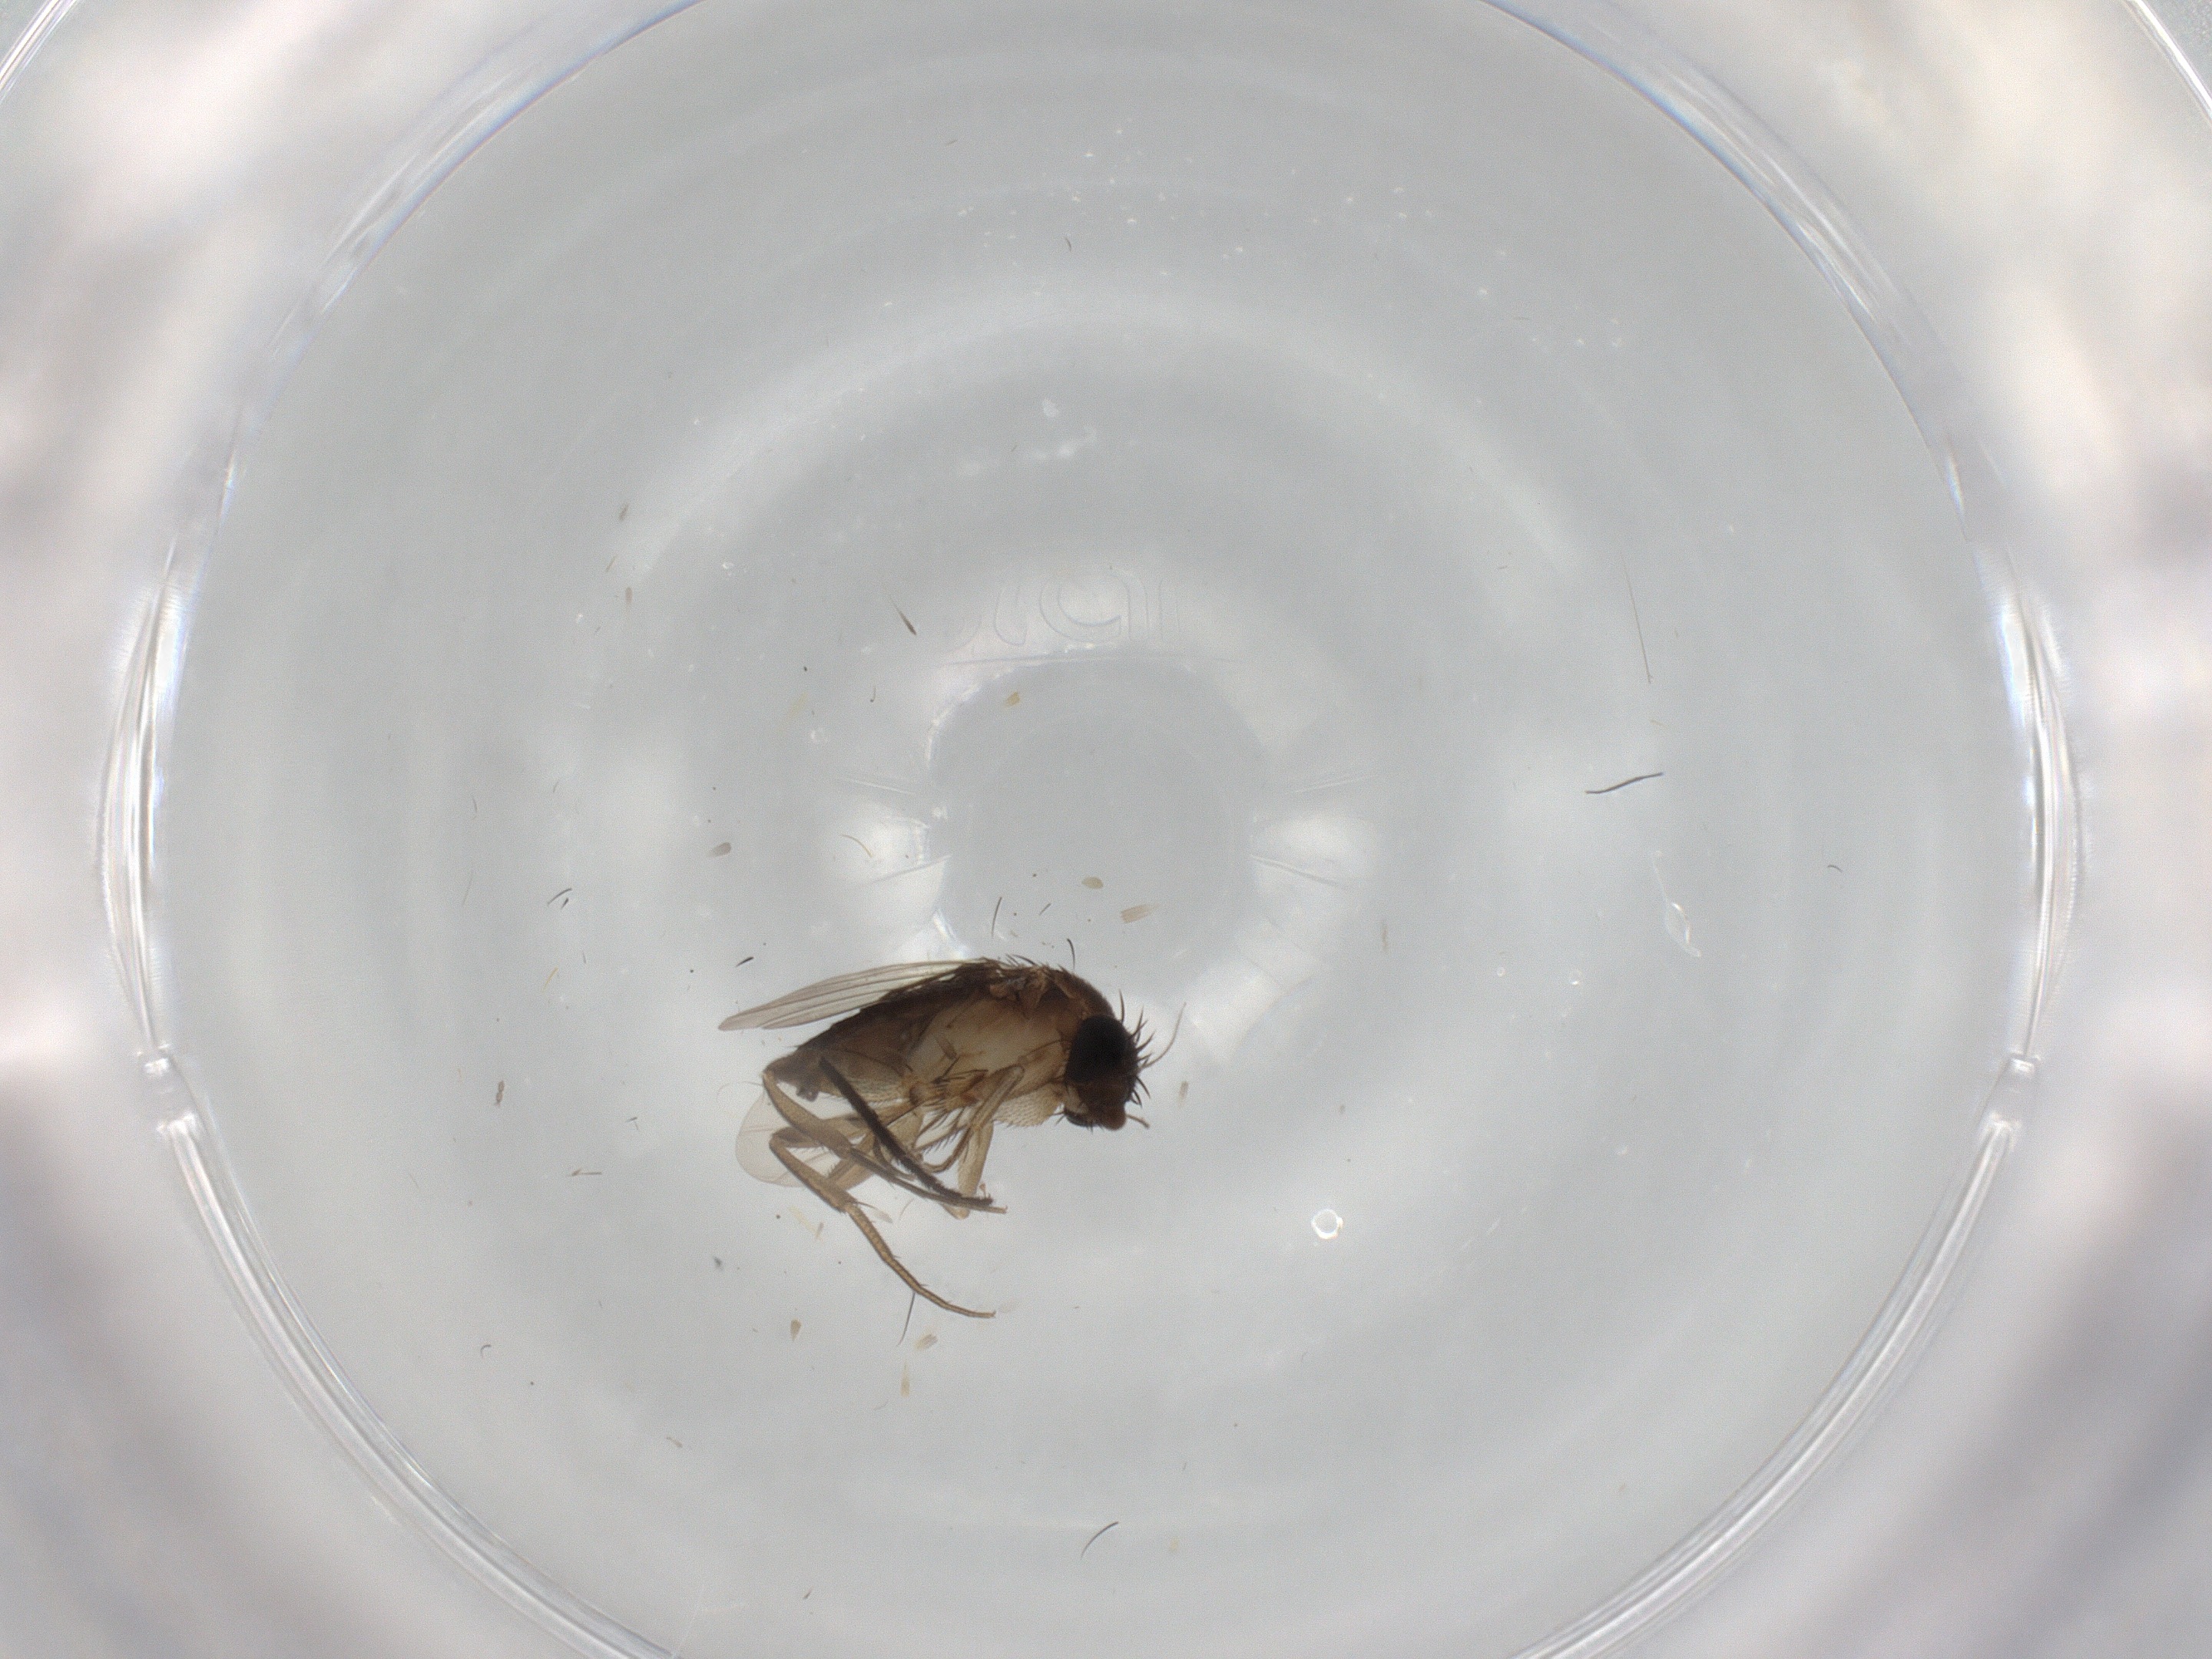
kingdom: Animalia
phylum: Arthropoda
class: Insecta
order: Diptera
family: Phoridae
